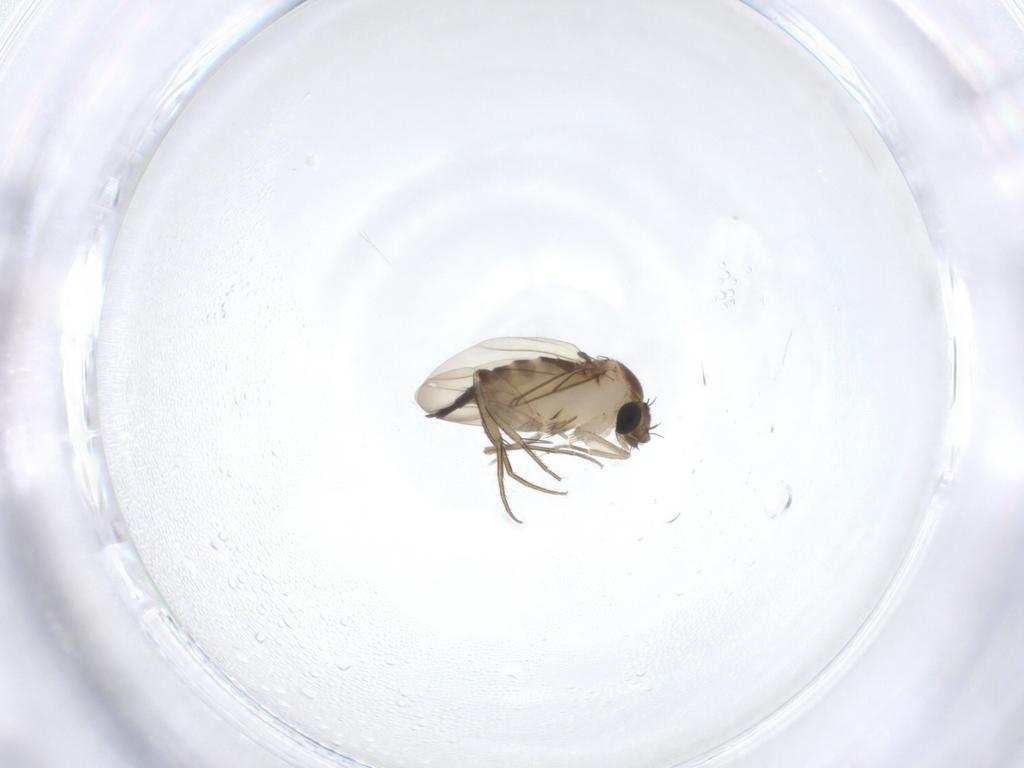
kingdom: Animalia
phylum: Arthropoda
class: Insecta
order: Diptera
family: Phoridae
